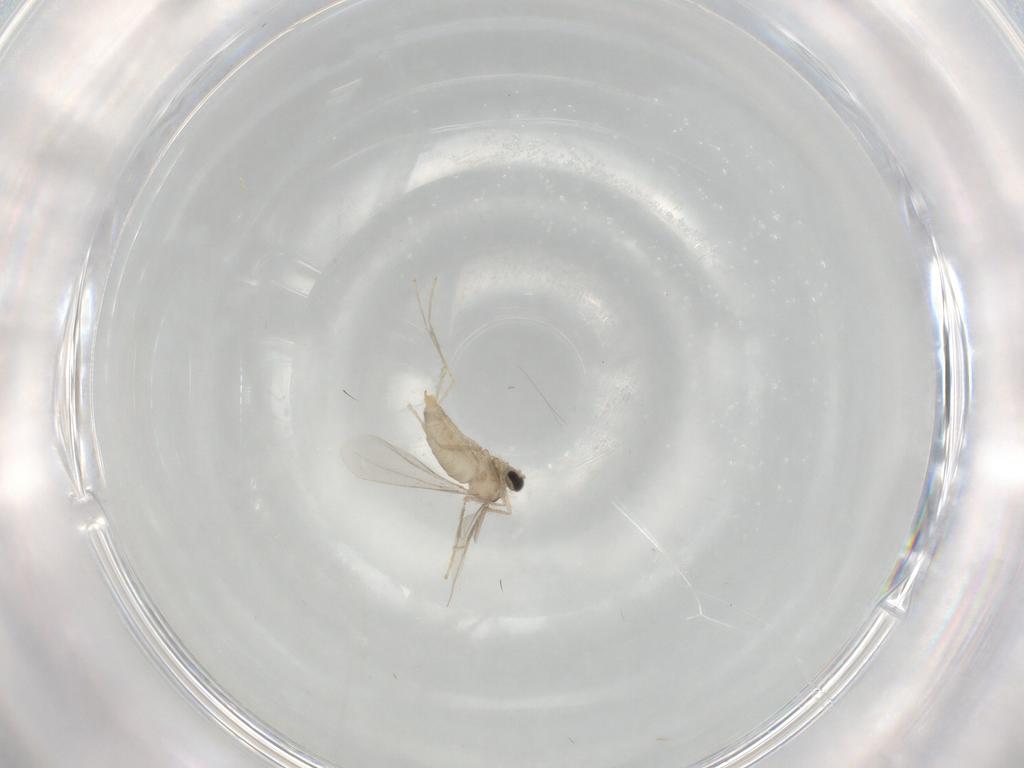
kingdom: Animalia
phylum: Arthropoda
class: Insecta
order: Diptera
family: Cecidomyiidae
